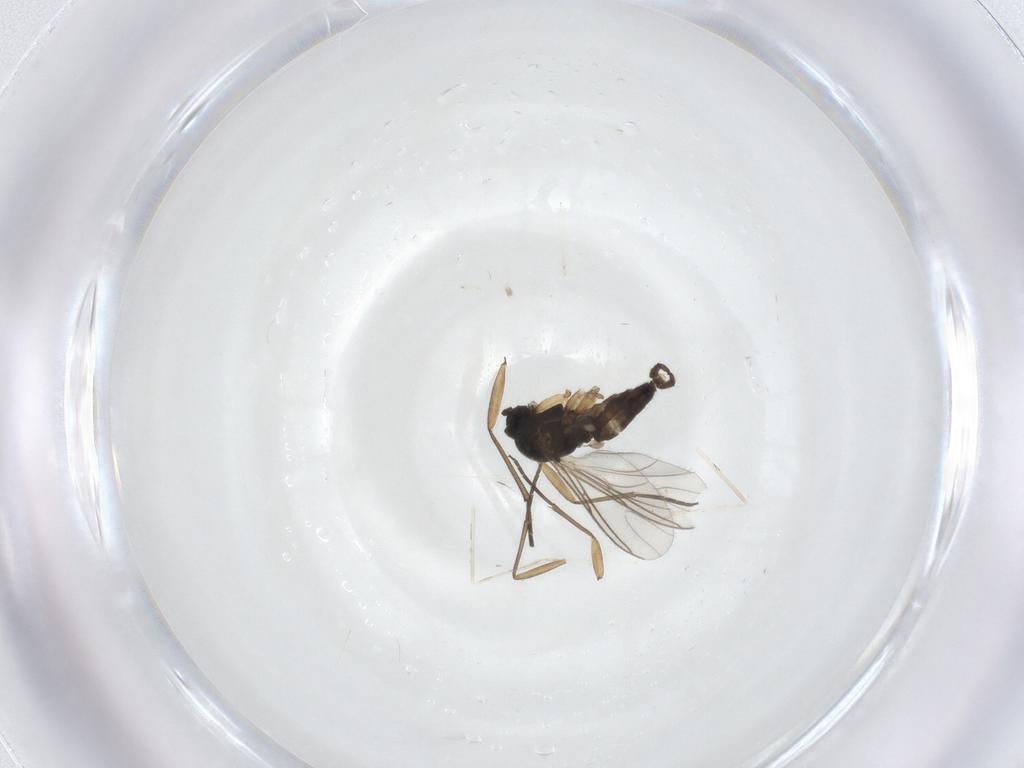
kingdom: Animalia
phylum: Arthropoda
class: Insecta
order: Diptera
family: Sciaridae
